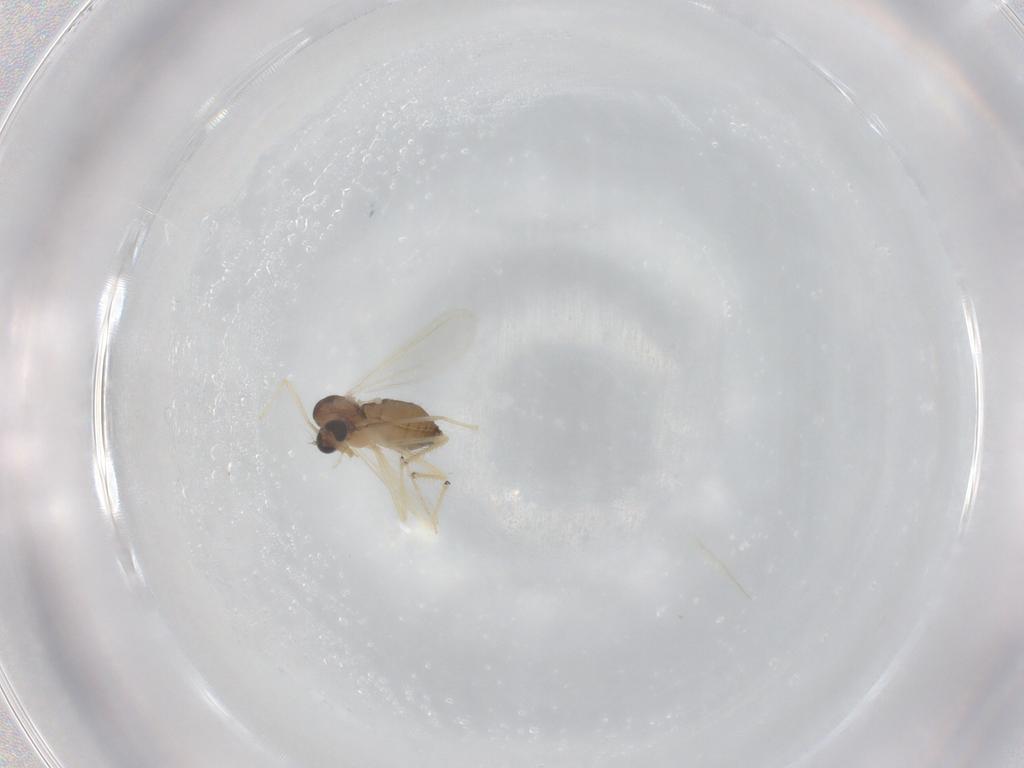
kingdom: Animalia
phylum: Arthropoda
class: Insecta
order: Diptera
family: Chironomidae
